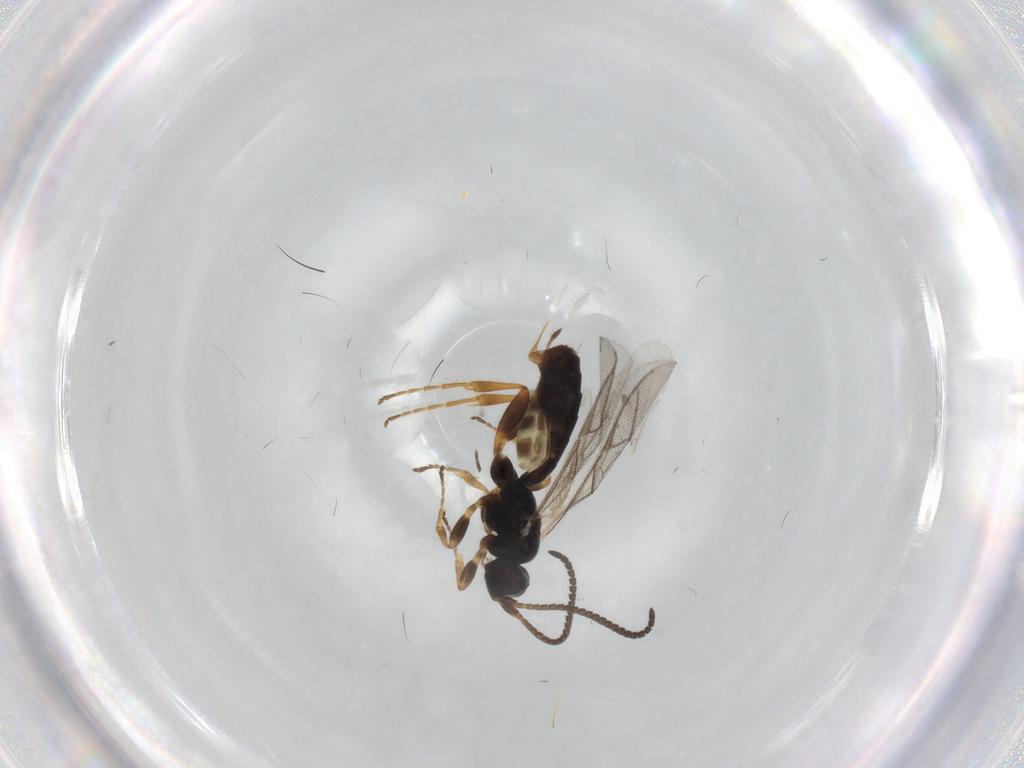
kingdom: Animalia
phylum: Arthropoda
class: Insecta
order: Hymenoptera
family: Ichneumonidae
